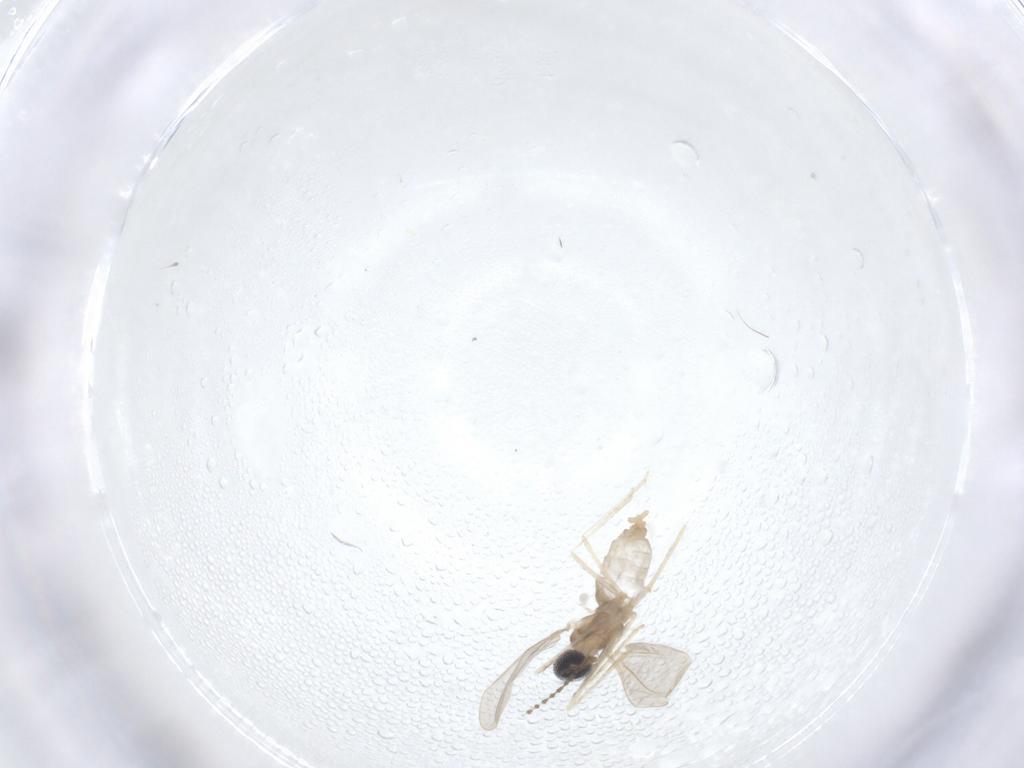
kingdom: Animalia
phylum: Arthropoda
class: Insecta
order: Diptera
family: Cecidomyiidae
